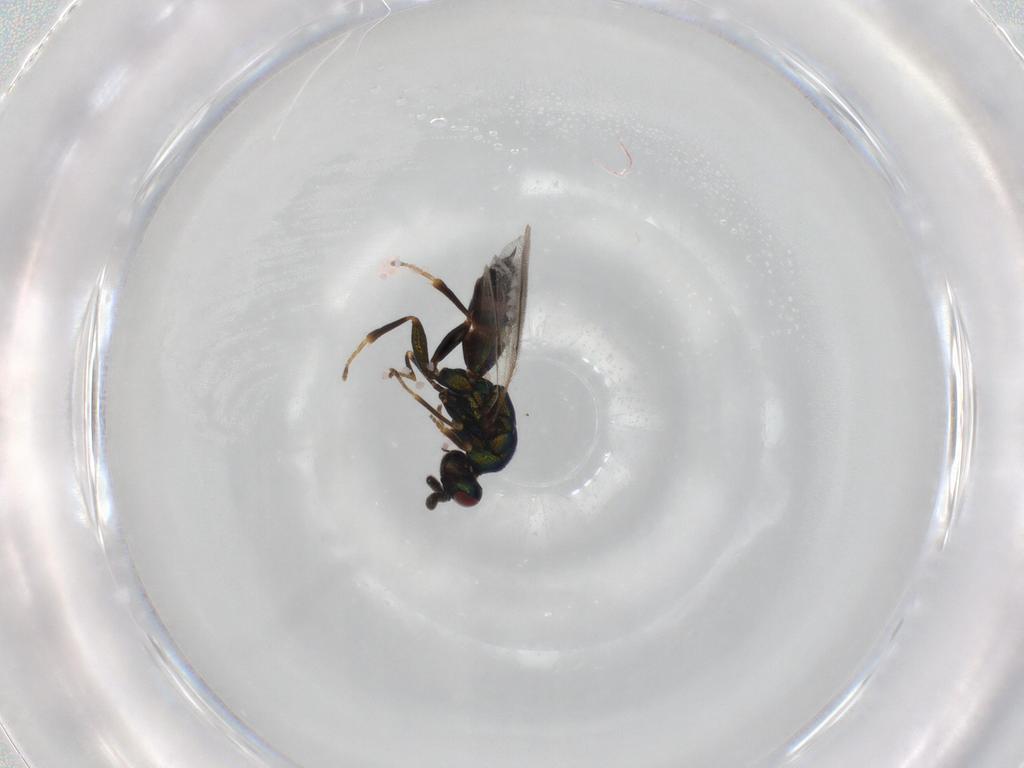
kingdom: Animalia
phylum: Arthropoda
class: Insecta
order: Hymenoptera
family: Torymidae
